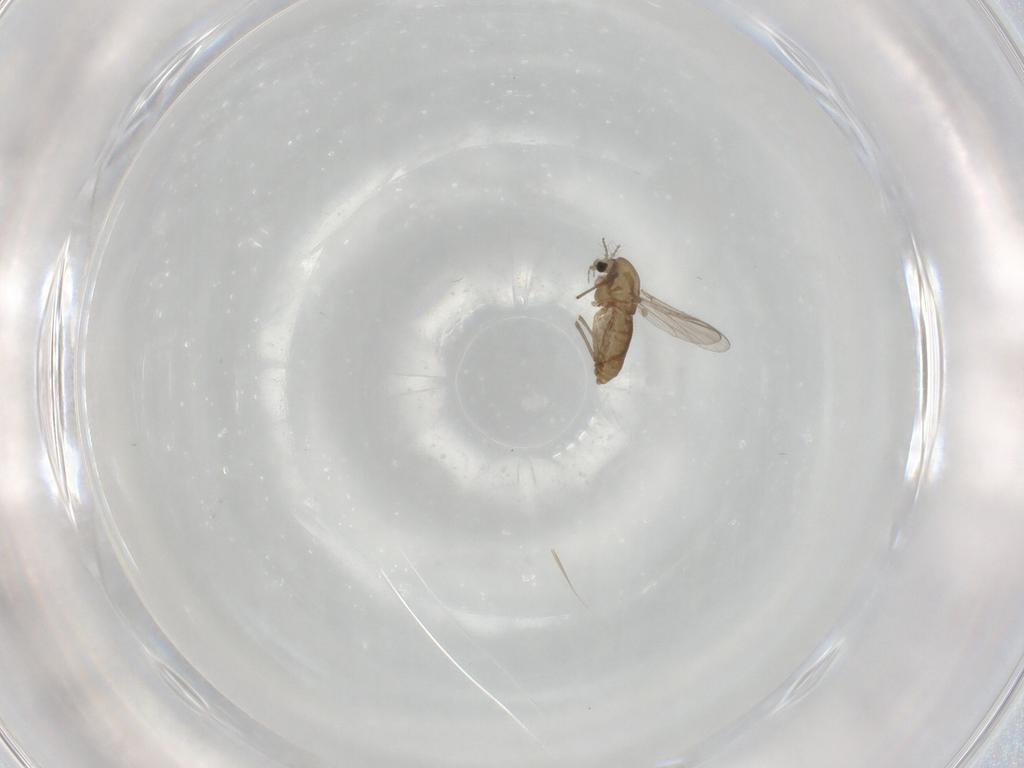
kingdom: Animalia
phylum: Arthropoda
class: Insecta
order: Diptera
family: Chironomidae
